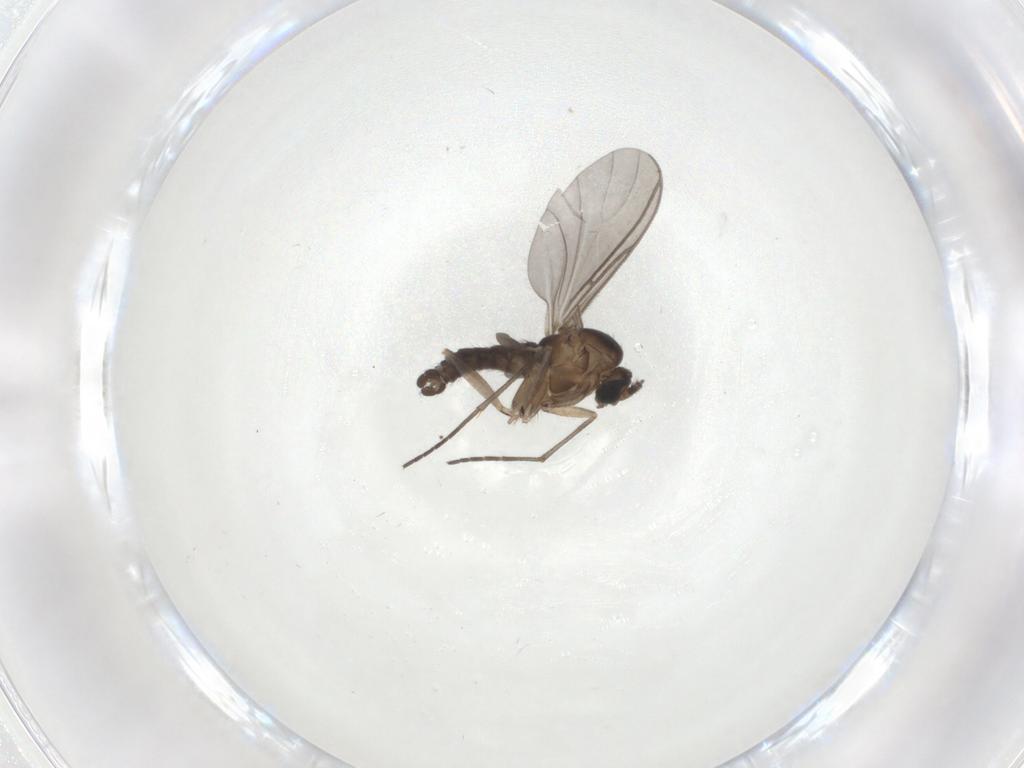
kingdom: Animalia
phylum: Arthropoda
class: Insecta
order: Diptera
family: Sciaridae
